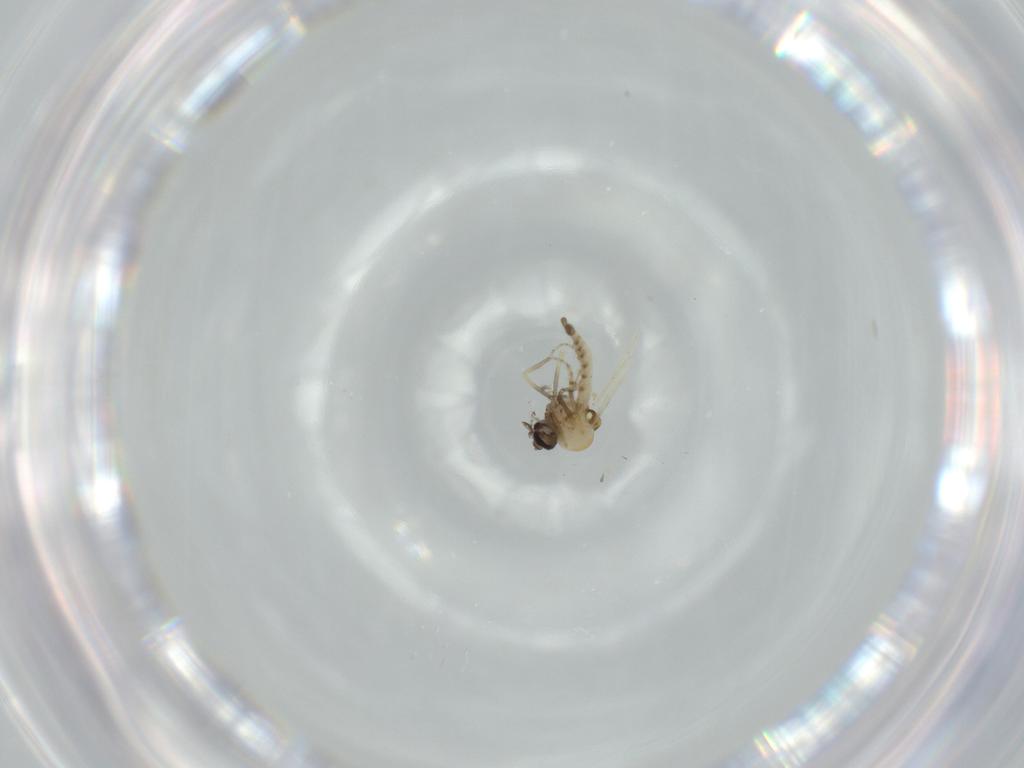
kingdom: Animalia
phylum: Arthropoda
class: Insecta
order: Diptera
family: Ceratopogonidae
